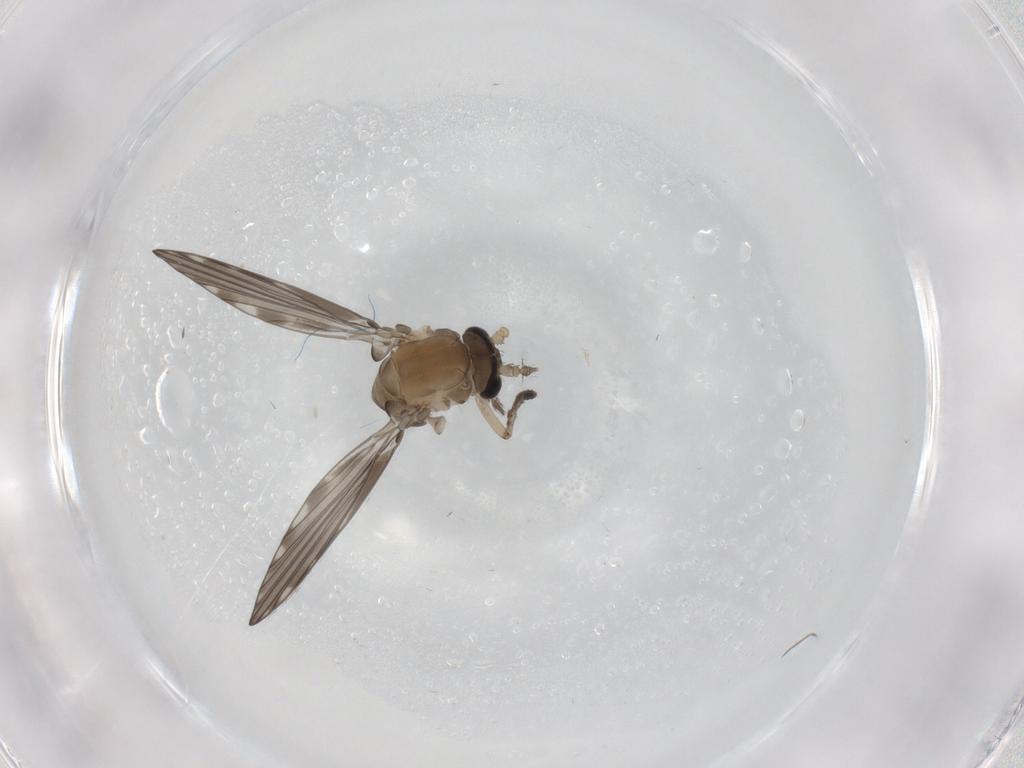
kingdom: Animalia
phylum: Arthropoda
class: Insecta
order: Diptera
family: Psychodidae
